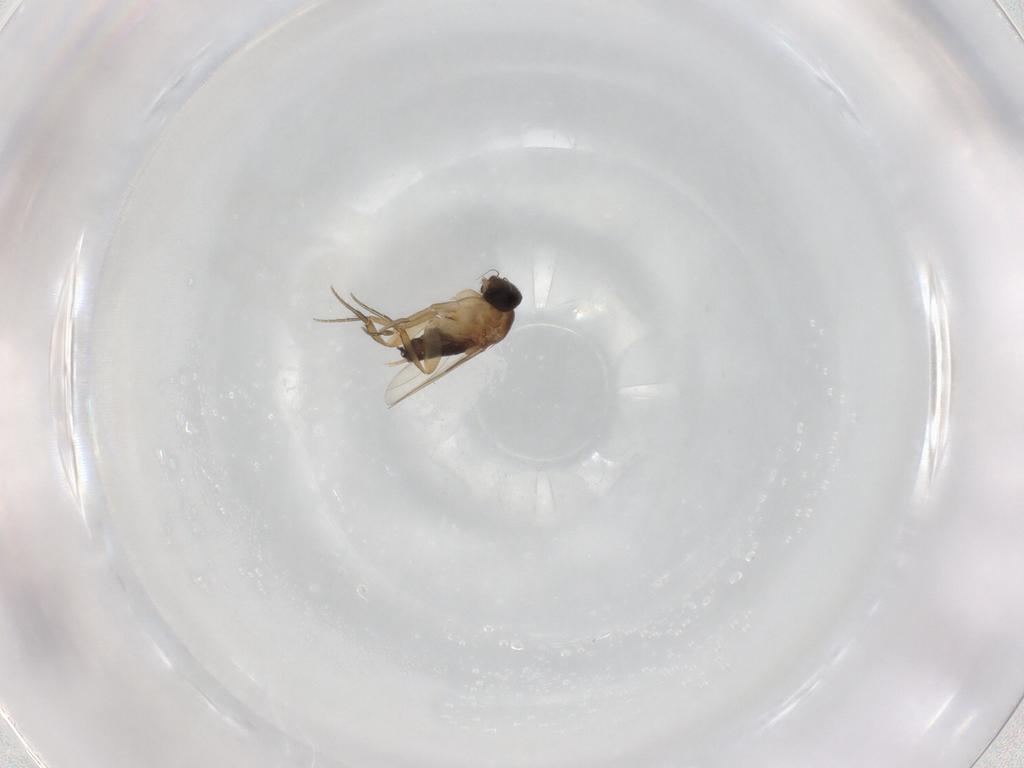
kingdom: Animalia
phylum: Arthropoda
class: Insecta
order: Diptera
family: Phoridae
